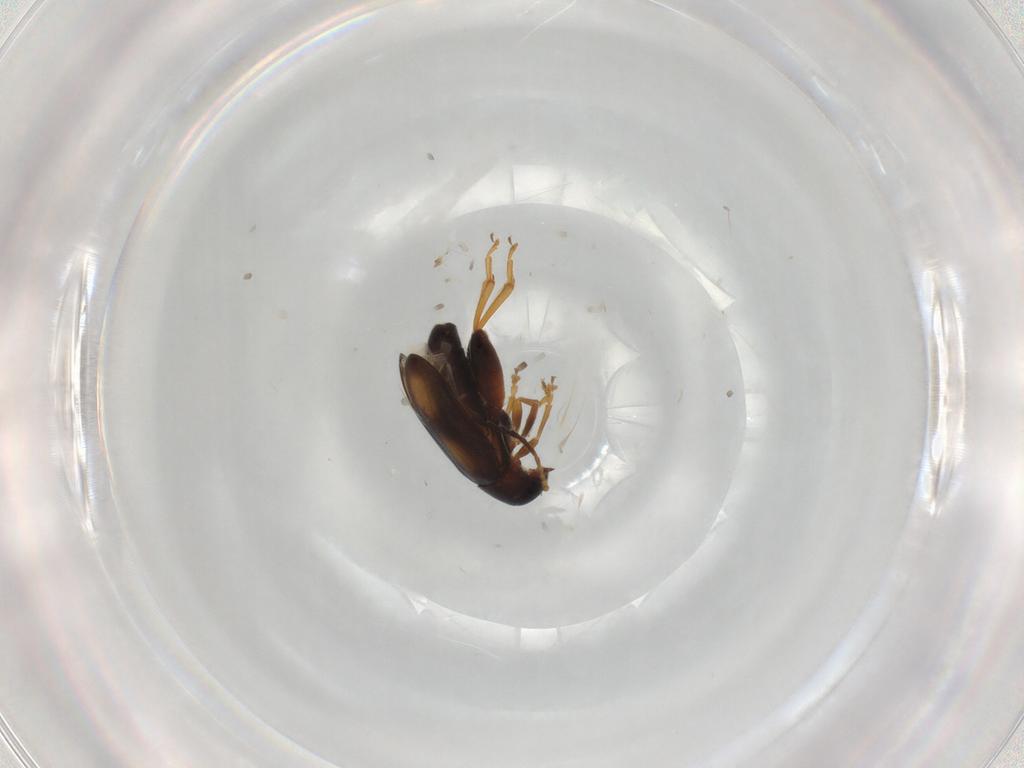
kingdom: Animalia
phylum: Arthropoda
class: Insecta
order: Coleoptera
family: Chrysomelidae
